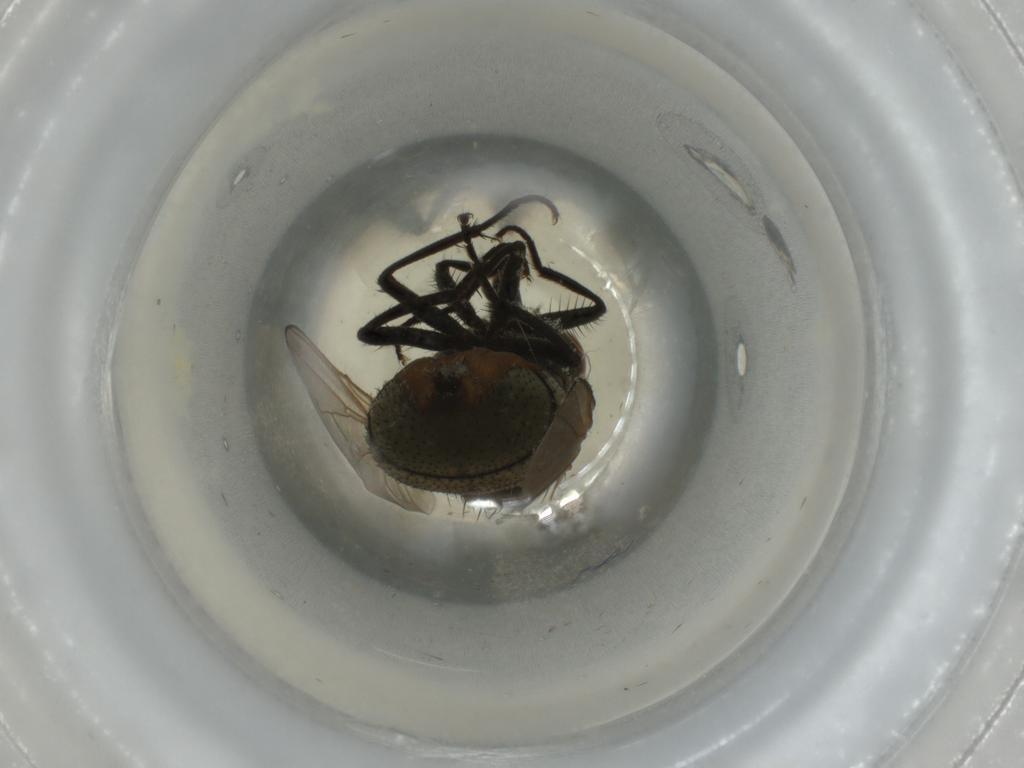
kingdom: Animalia
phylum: Arthropoda
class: Insecta
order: Diptera
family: Muscidae
